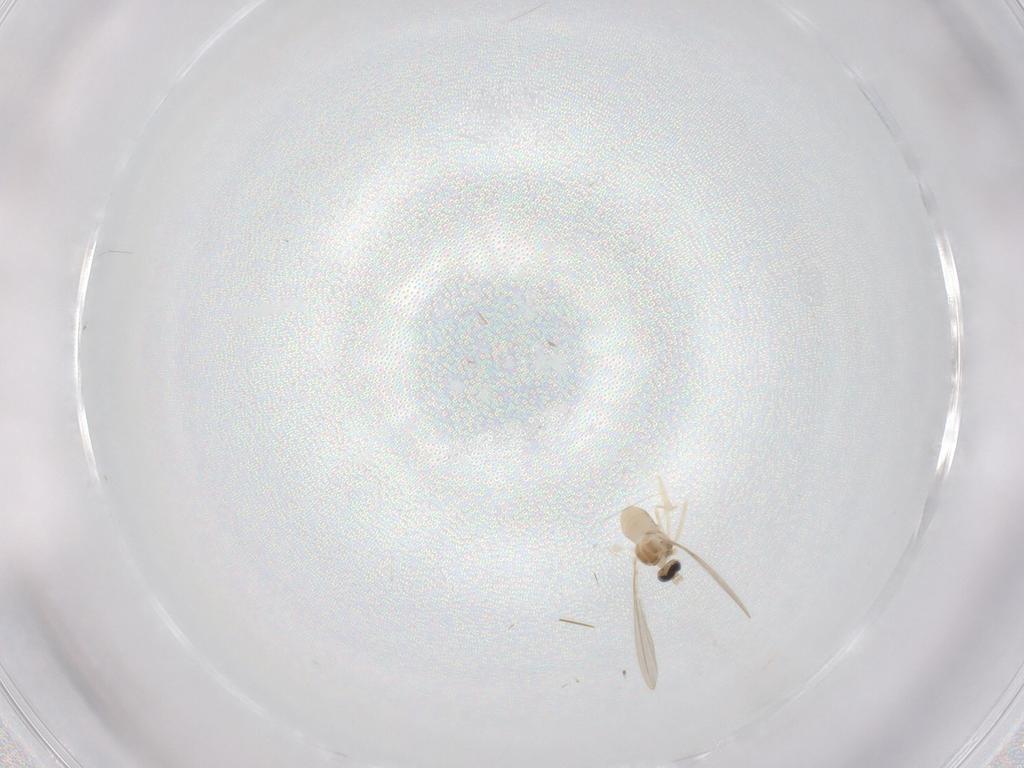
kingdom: Animalia
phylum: Arthropoda
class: Insecta
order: Diptera
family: Cecidomyiidae
